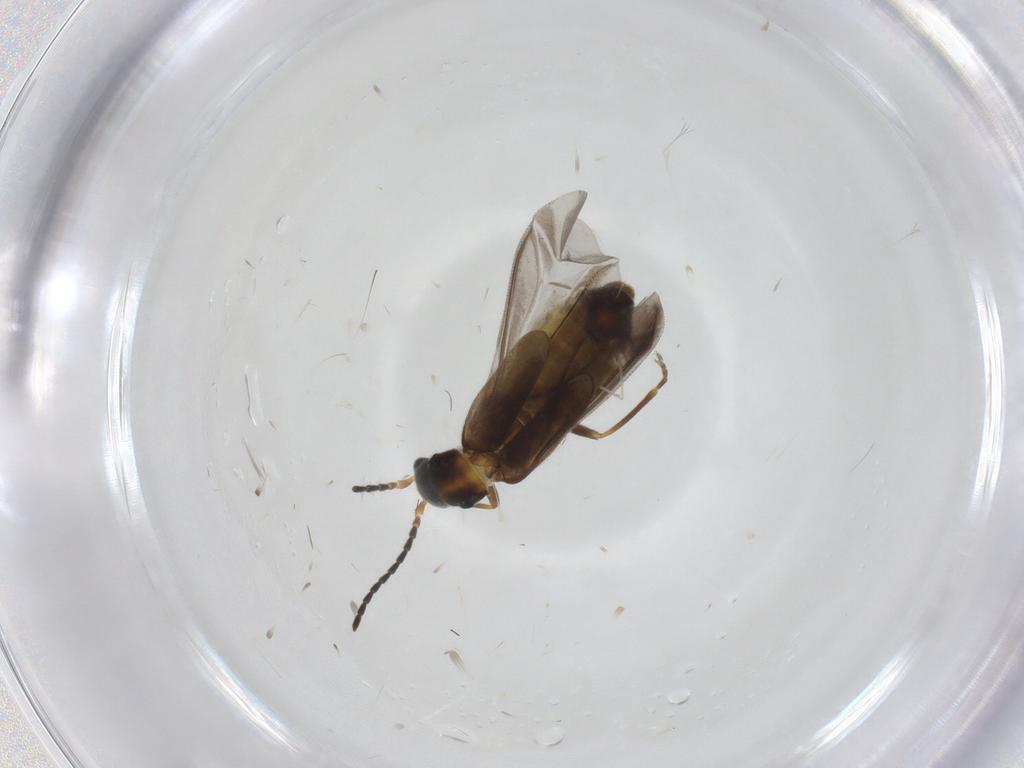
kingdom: Animalia
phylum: Arthropoda
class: Insecta
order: Coleoptera
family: Cantharidae
